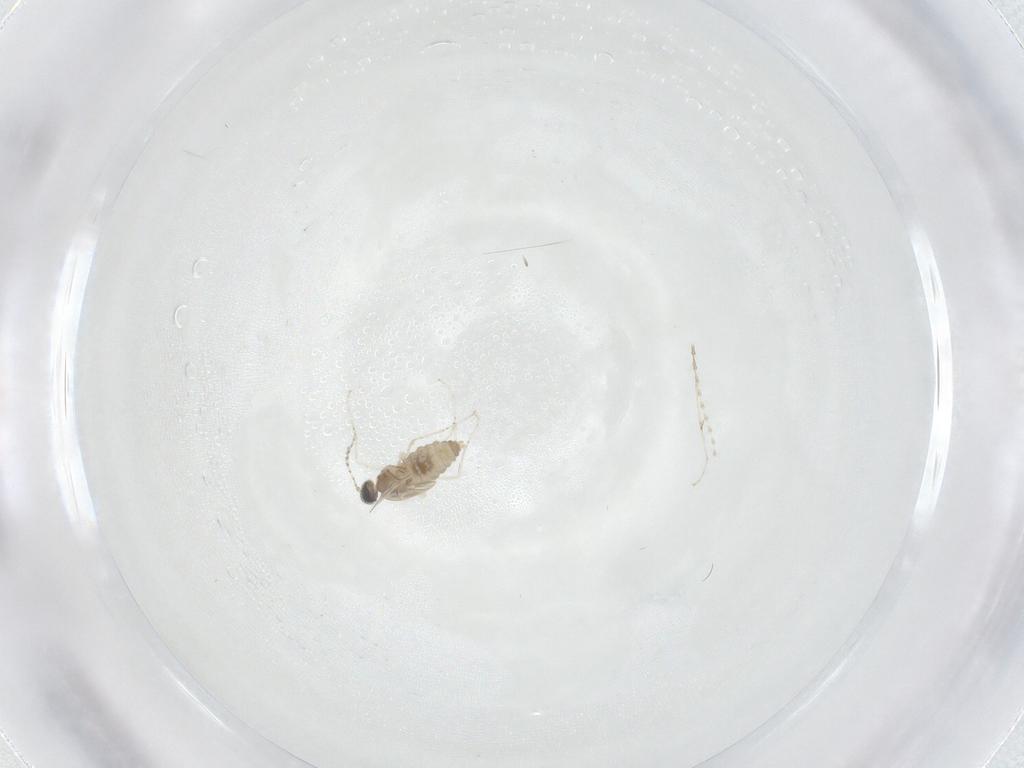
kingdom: Animalia
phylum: Arthropoda
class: Insecta
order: Diptera
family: Cecidomyiidae
